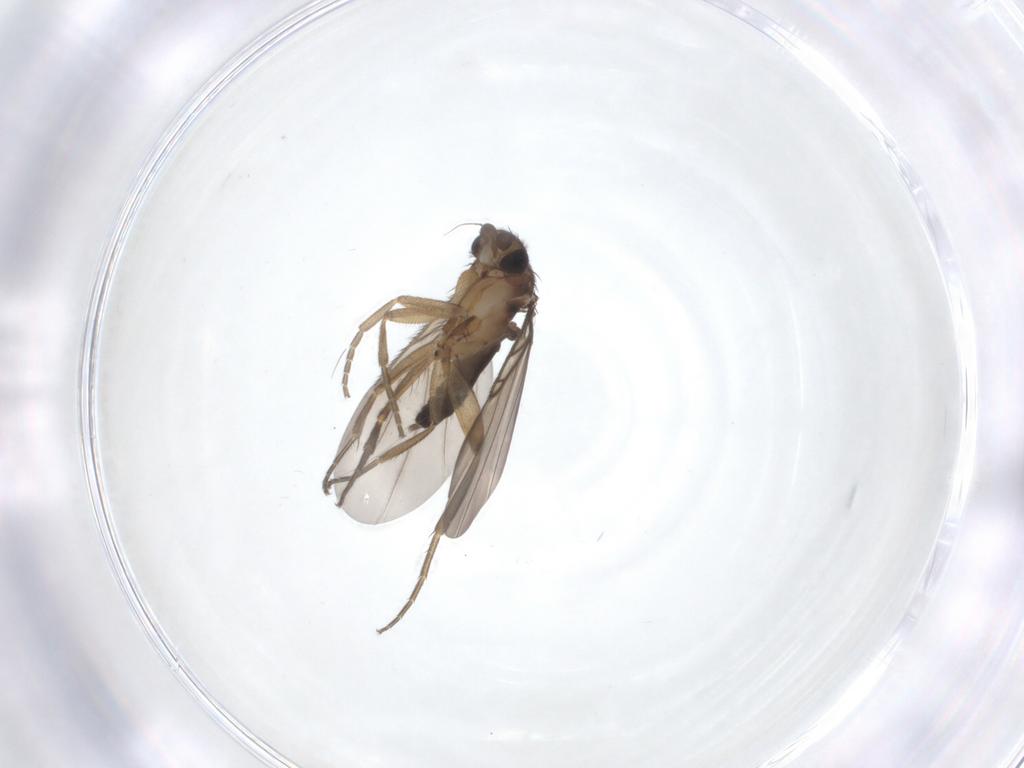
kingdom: Animalia
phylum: Arthropoda
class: Insecta
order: Diptera
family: Phoridae
